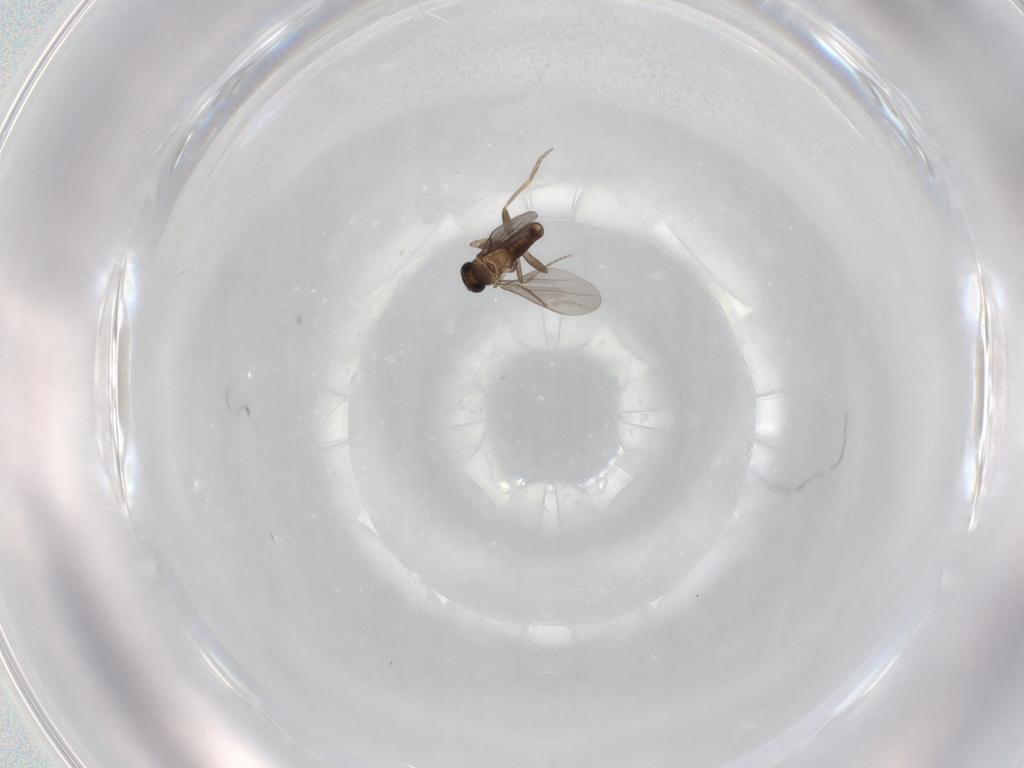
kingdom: Animalia
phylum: Arthropoda
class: Insecta
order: Diptera
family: Phoridae
